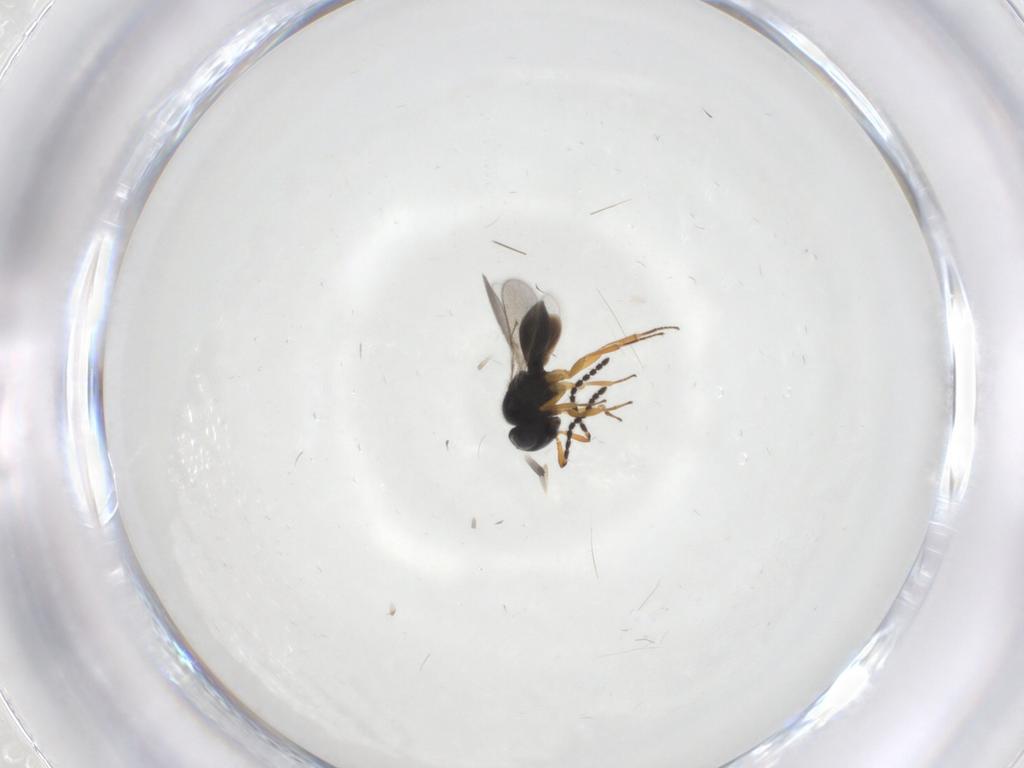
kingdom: Animalia
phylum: Arthropoda
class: Insecta
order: Hymenoptera
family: Scelionidae
